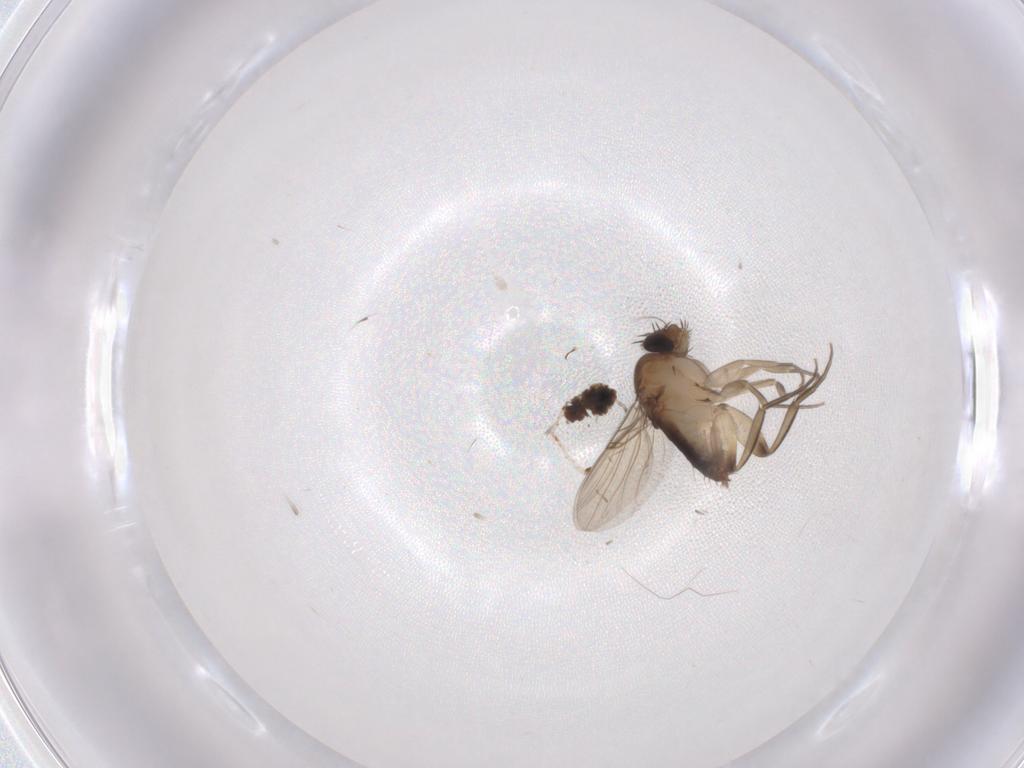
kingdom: Animalia
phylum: Arthropoda
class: Insecta
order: Diptera
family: Phoridae
